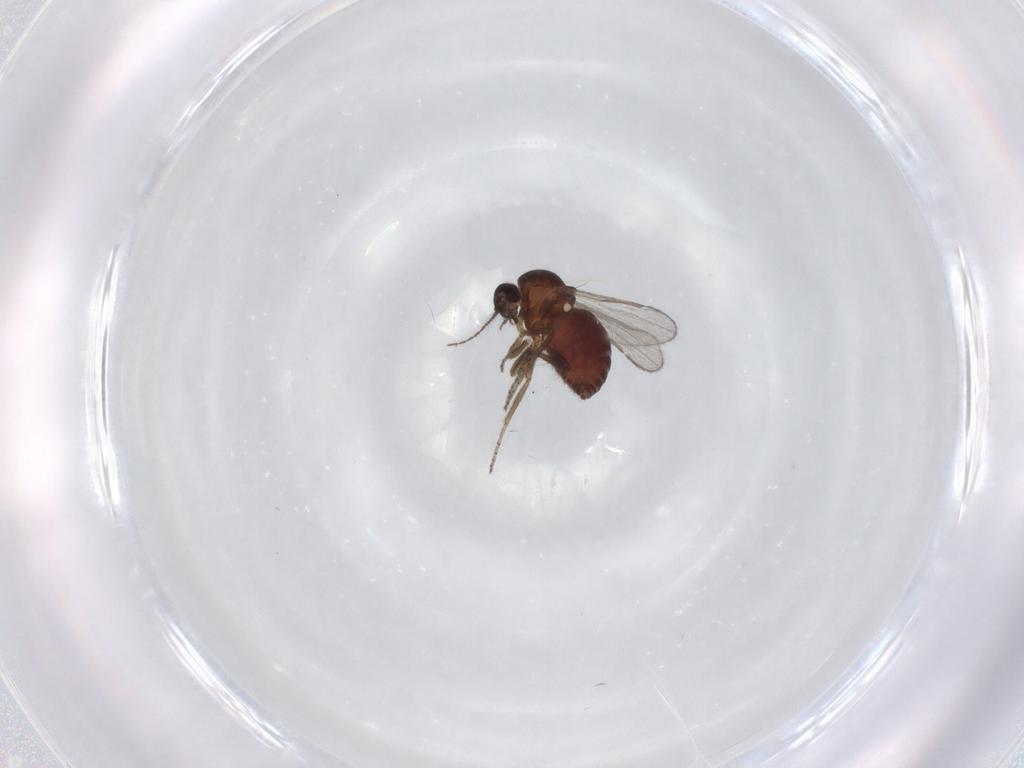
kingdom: Animalia
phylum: Arthropoda
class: Insecta
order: Diptera
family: Ceratopogonidae
